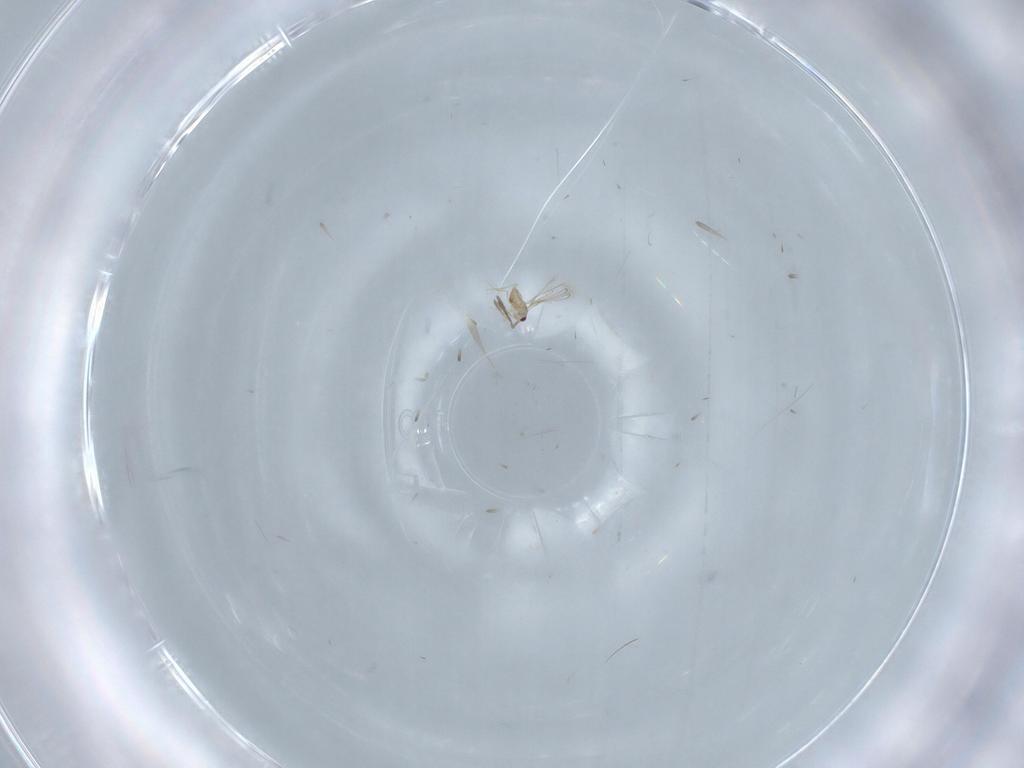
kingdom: Animalia
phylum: Arthropoda
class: Insecta
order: Hymenoptera
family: Mymaridae
